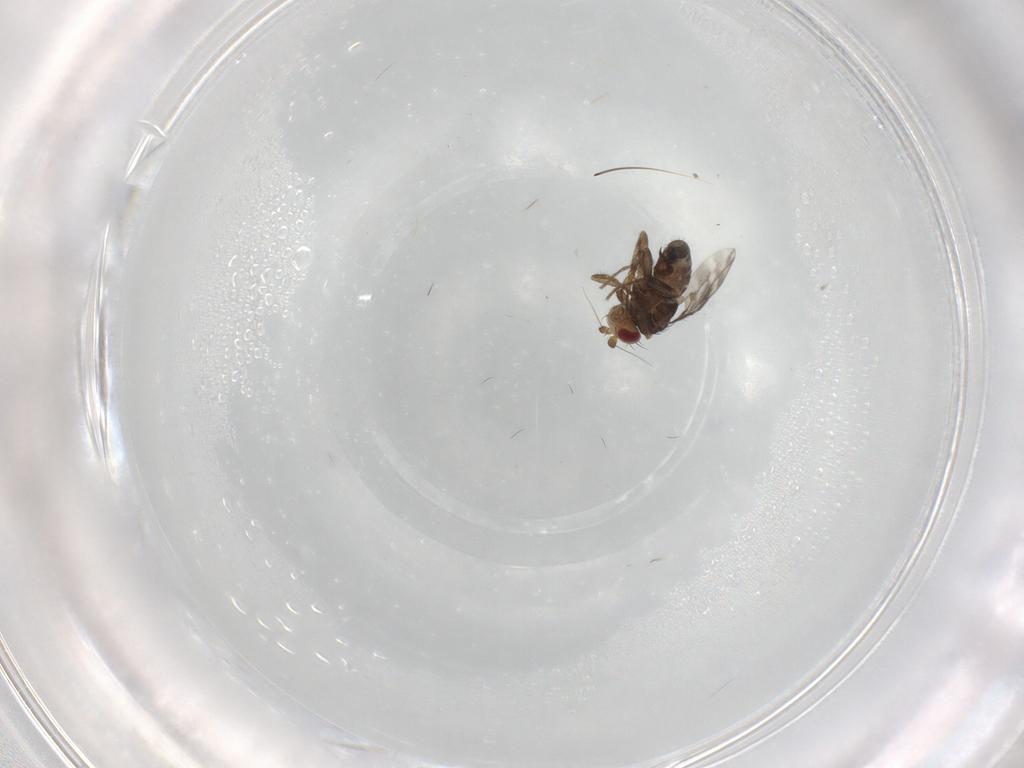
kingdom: Animalia
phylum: Arthropoda
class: Insecta
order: Diptera
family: Sphaeroceridae
